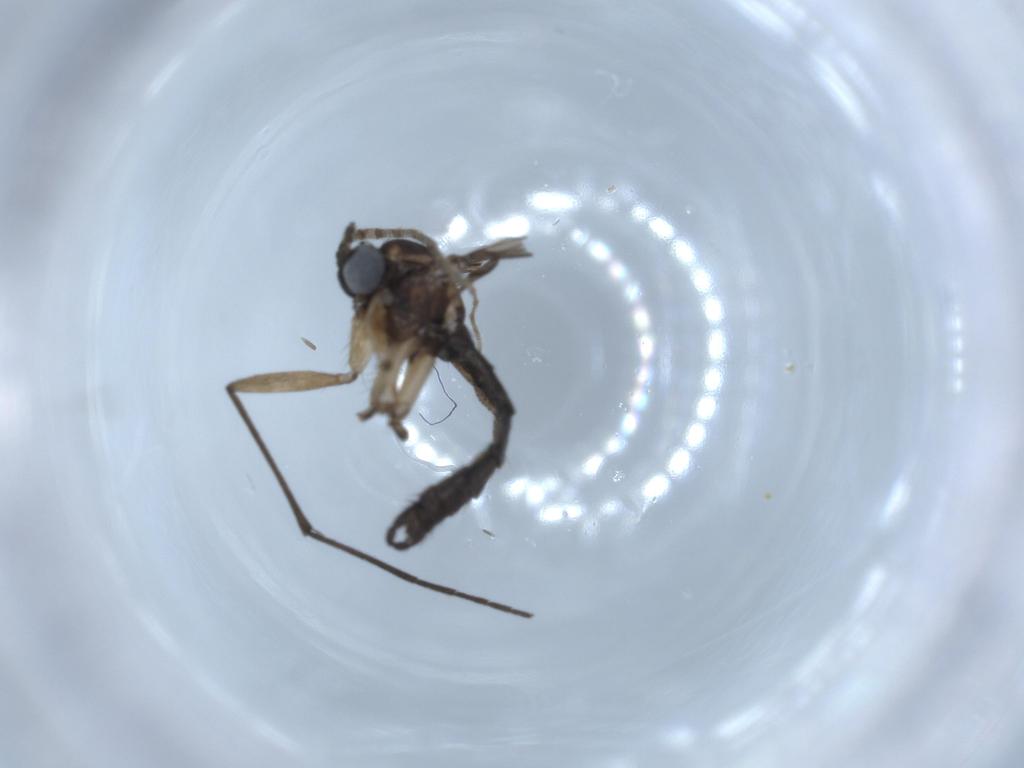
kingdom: Animalia
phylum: Arthropoda
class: Insecta
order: Diptera
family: Sciaridae
